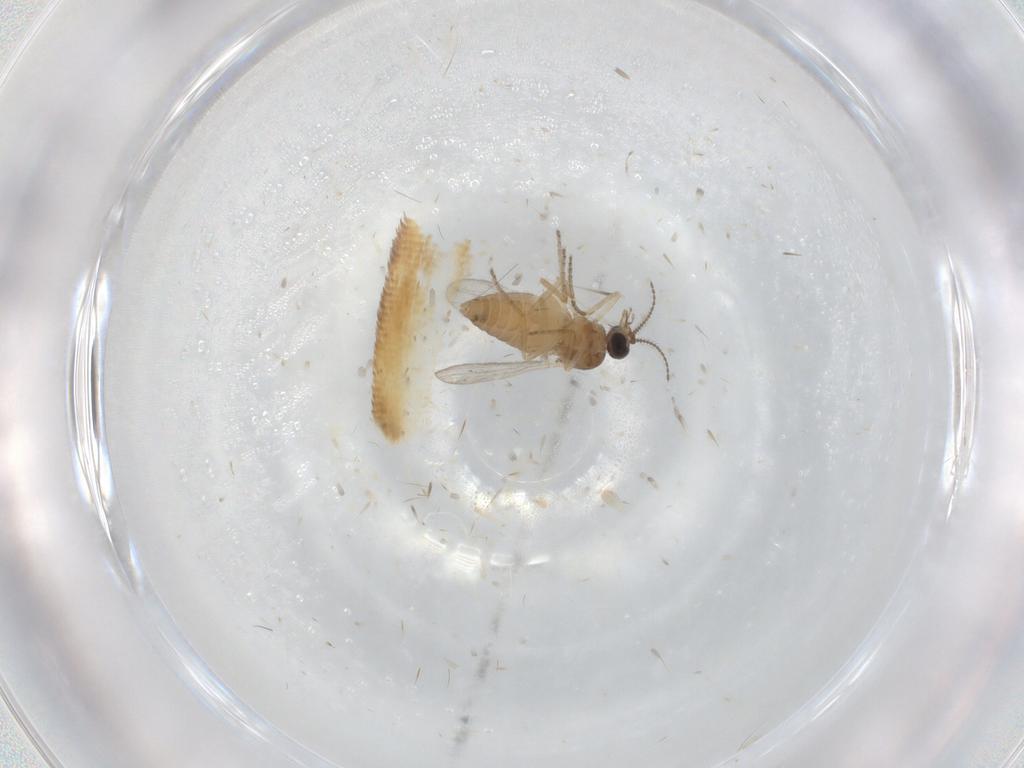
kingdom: Animalia
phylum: Arthropoda
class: Insecta
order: Diptera
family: Ceratopogonidae
